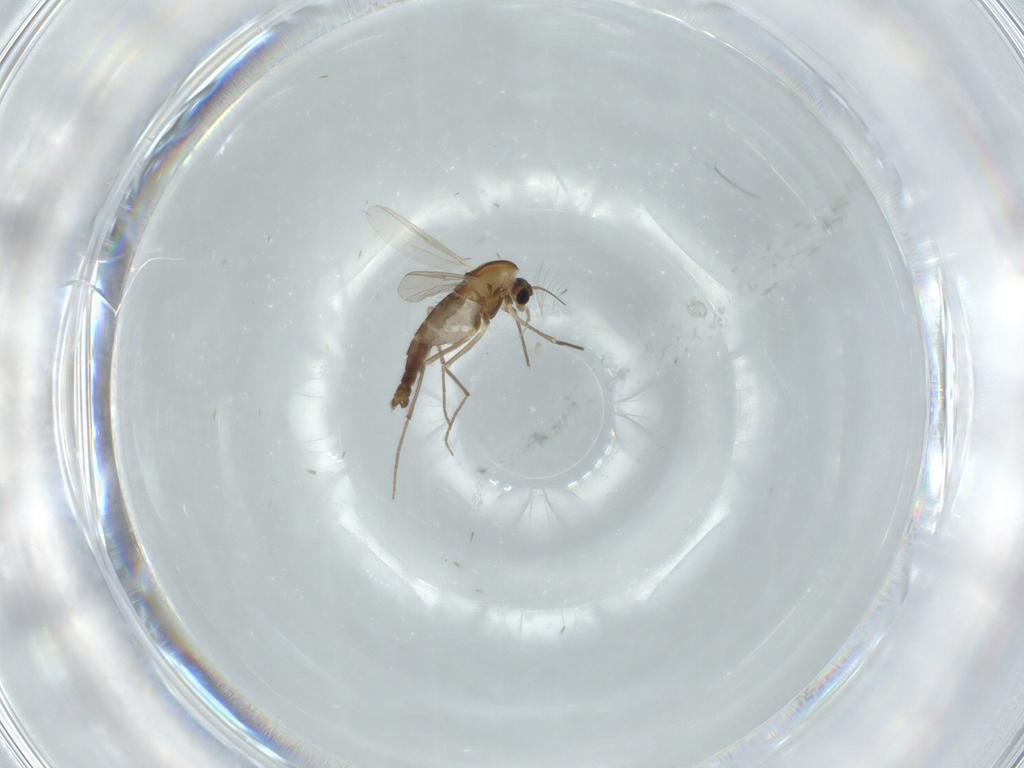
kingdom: Animalia
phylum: Arthropoda
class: Insecta
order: Diptera
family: Chironomidae
